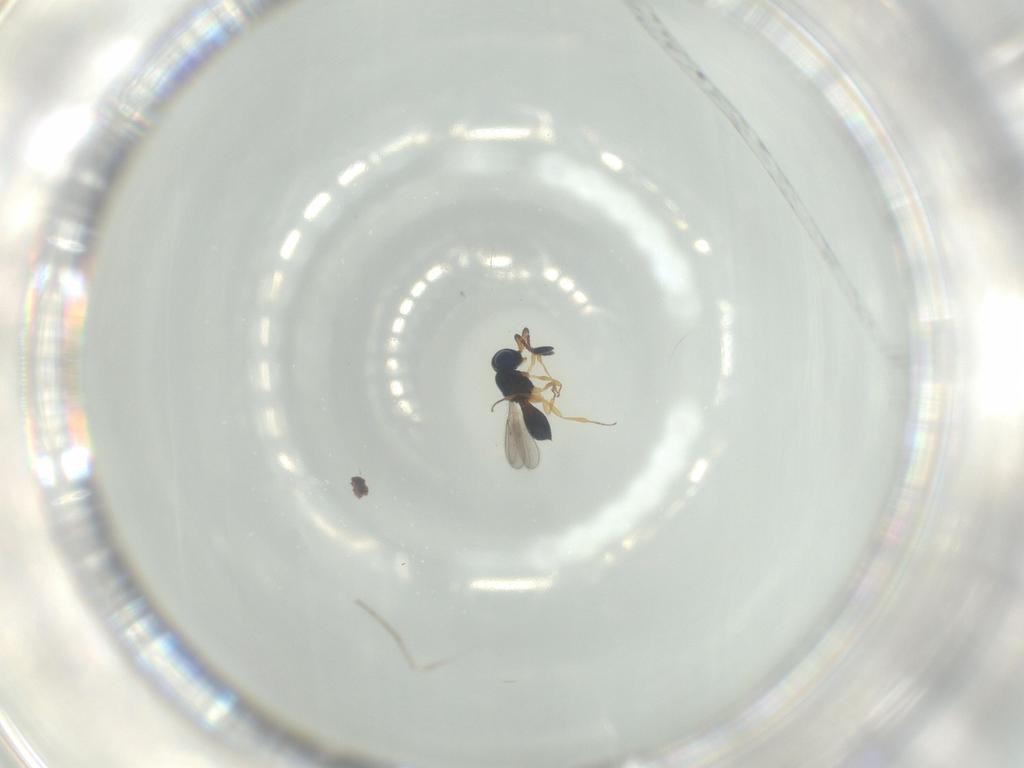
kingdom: Animalia
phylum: Arthropoda
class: Insecta
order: Hymenoptera
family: Scelionidae
